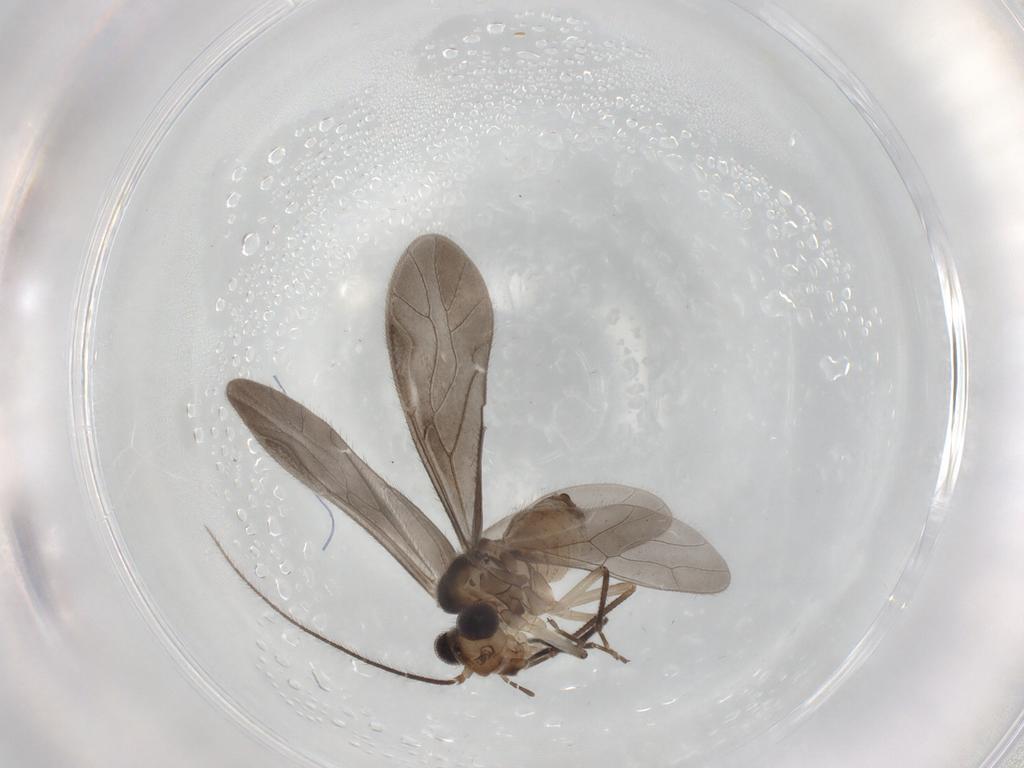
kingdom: Animalia
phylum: Arthropoda
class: Insecta
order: Psocodea
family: Caeciliusidae
